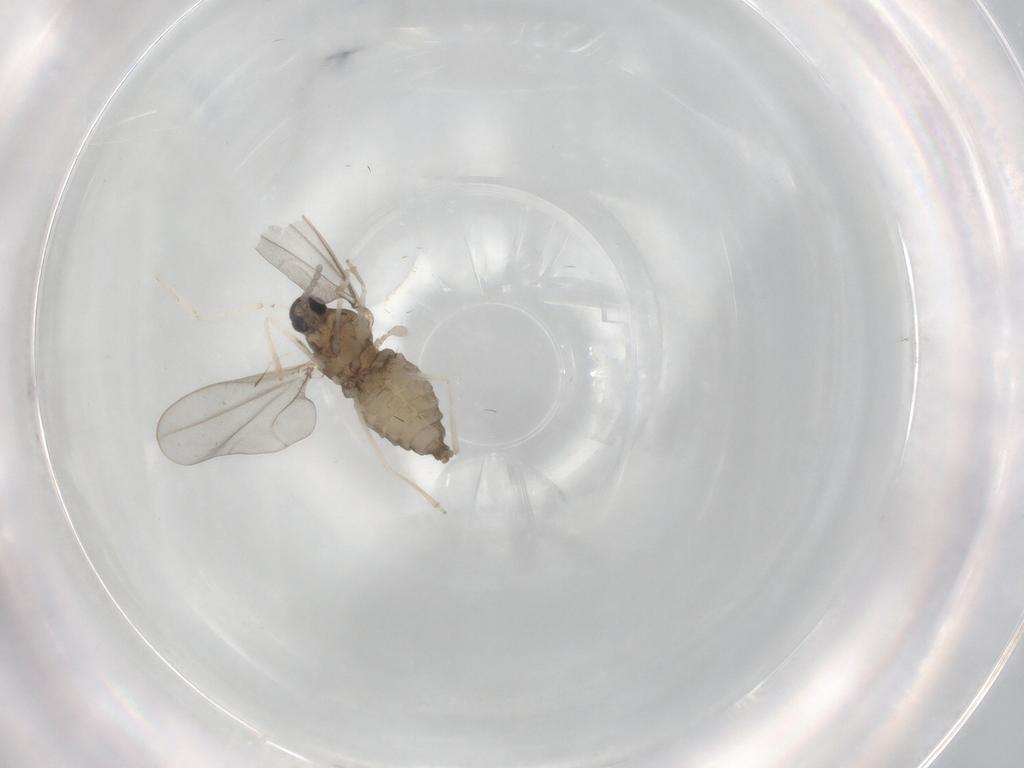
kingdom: Animalia
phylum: Arthropoda
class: Insecta
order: Diptera
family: Cecidomyiidae
